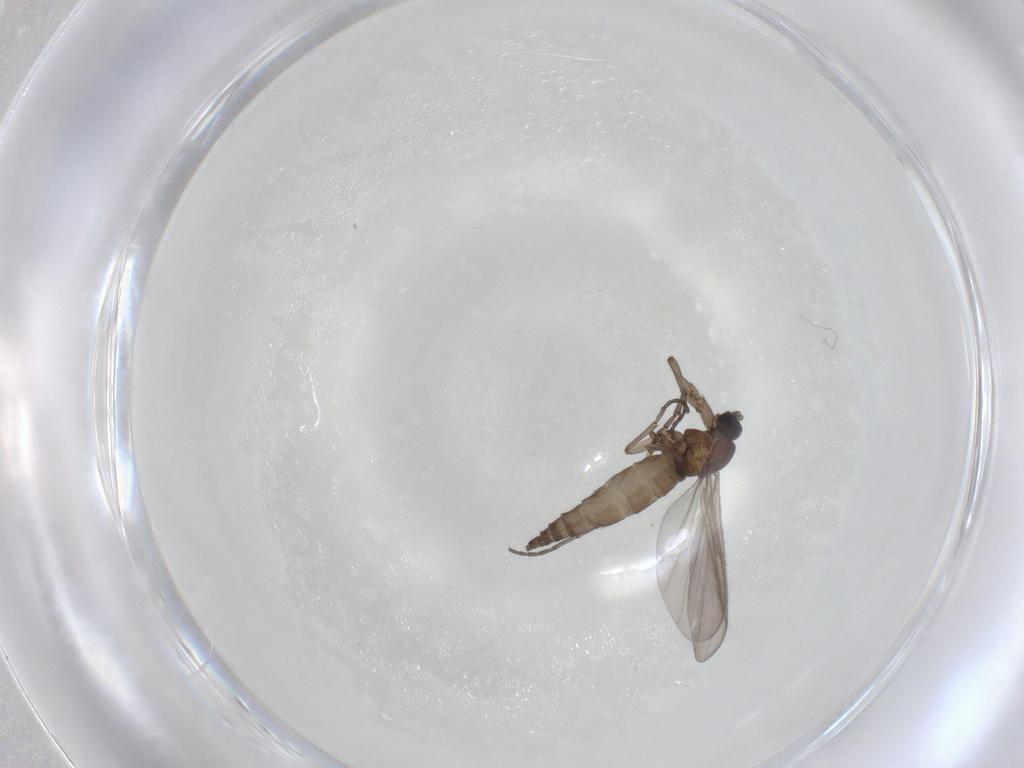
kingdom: Animalia
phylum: Arthropoda
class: Insecta
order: Diptera
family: Sciaridae
